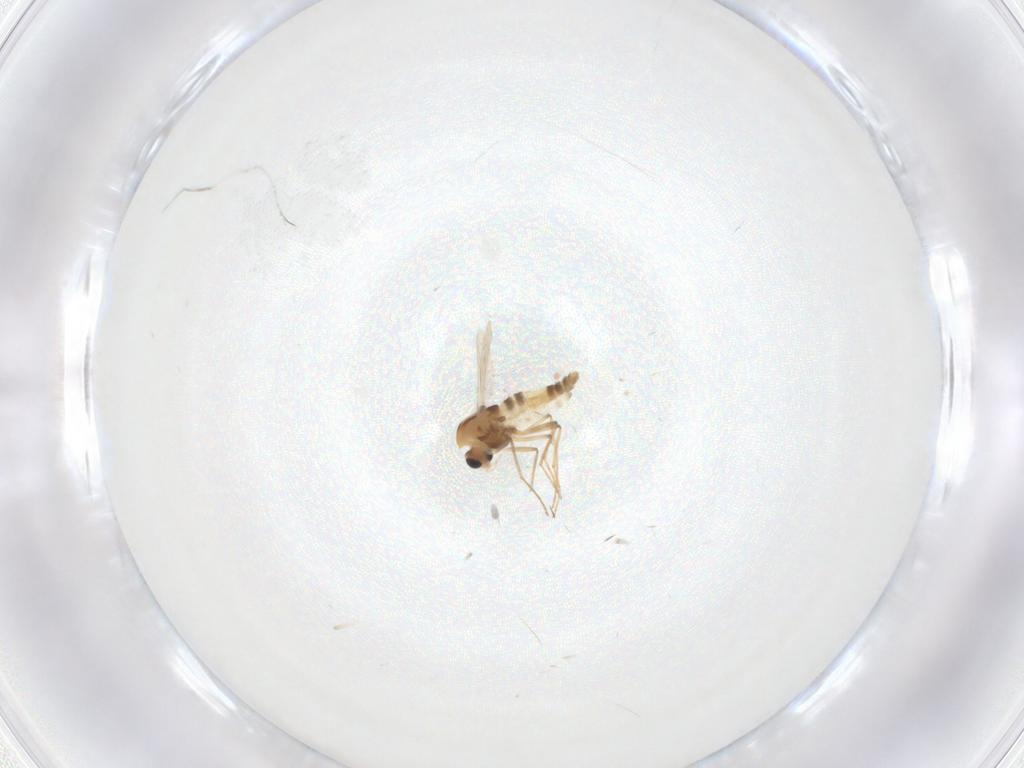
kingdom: Animalia
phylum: Arthropoda
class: Insecta
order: Diptera
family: Chironomidae
